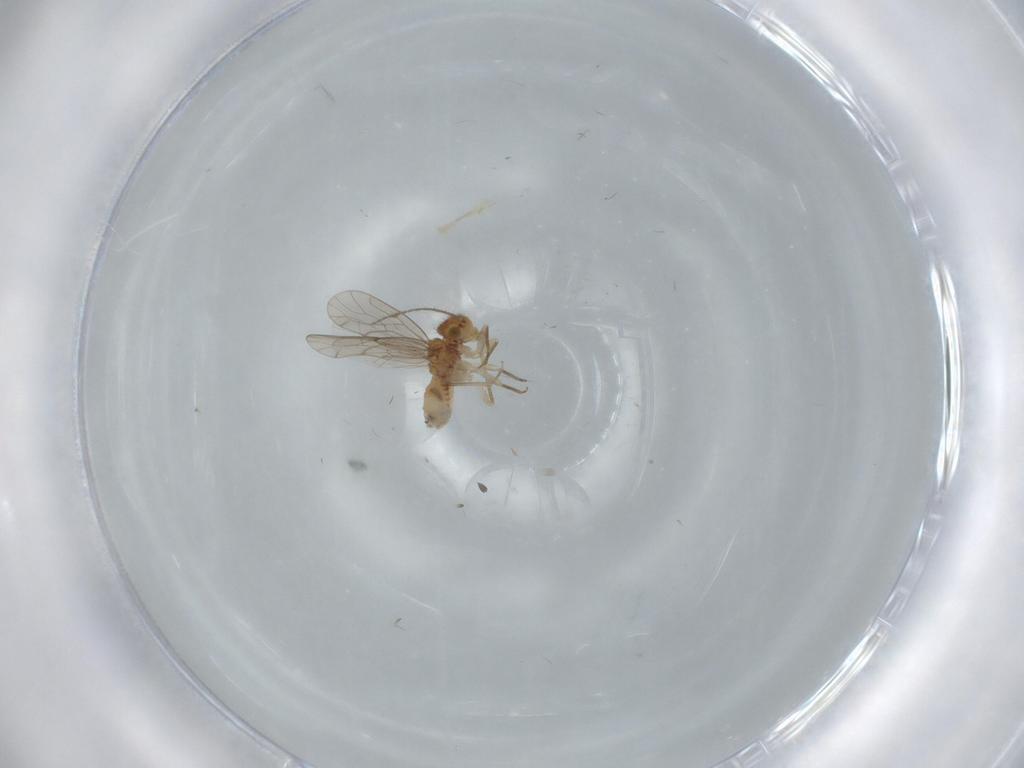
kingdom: Animalia
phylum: Arthropoda
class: Insecta
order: Psocodea
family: Ectopsocidae
